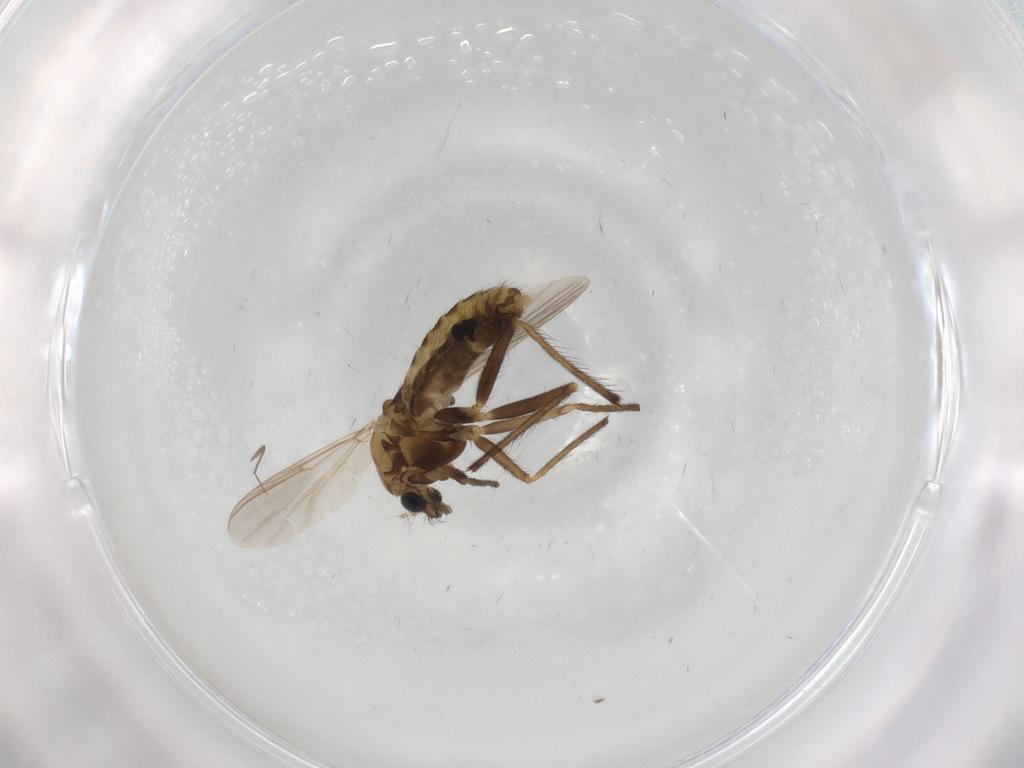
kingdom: Animalia
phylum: Arthropoda
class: Insecta
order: Diptera
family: Chironomidae
